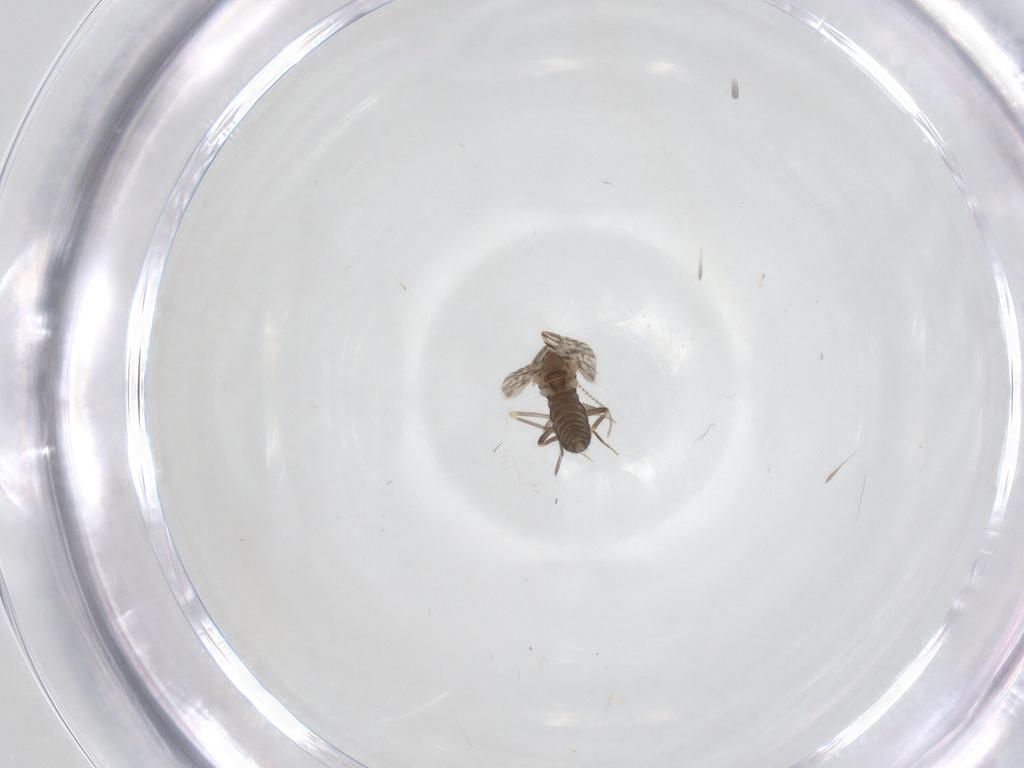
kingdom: Animalia
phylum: Arthropoda
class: Insecta
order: Diptera
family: Ceratopogonidae
